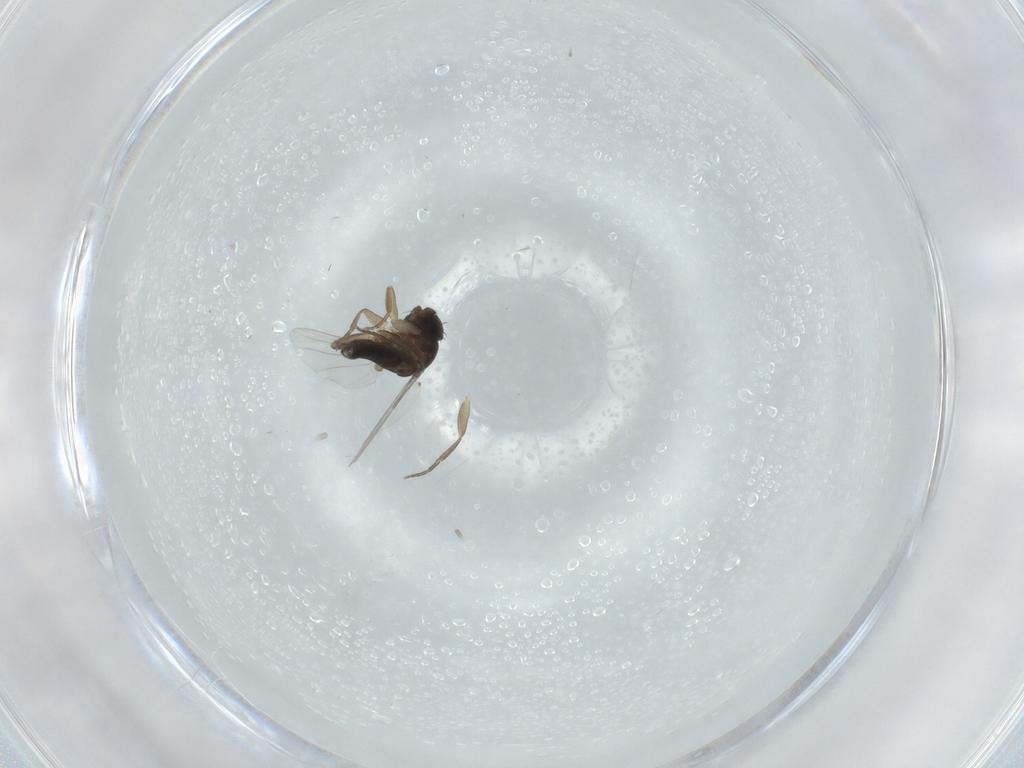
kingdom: Animalia
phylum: Arthropoda
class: Insecta
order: Diptera
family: Phoridae
